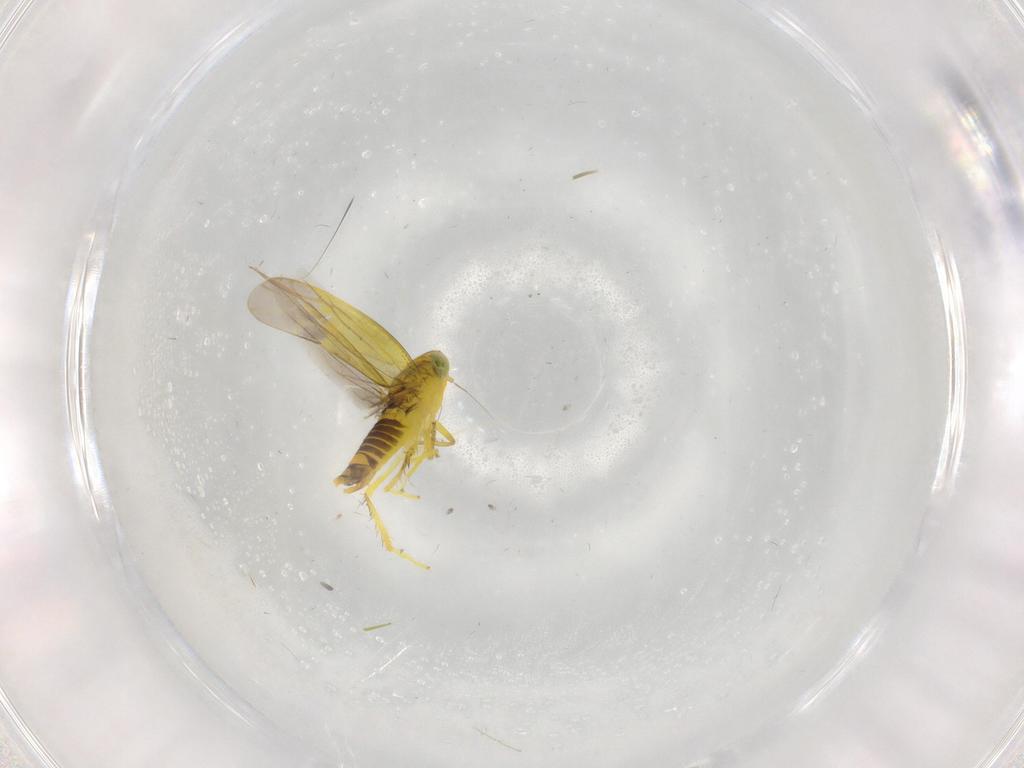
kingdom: Animalia
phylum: Arthropoda
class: Insecta
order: Hemiptera
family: Cicadellidae
